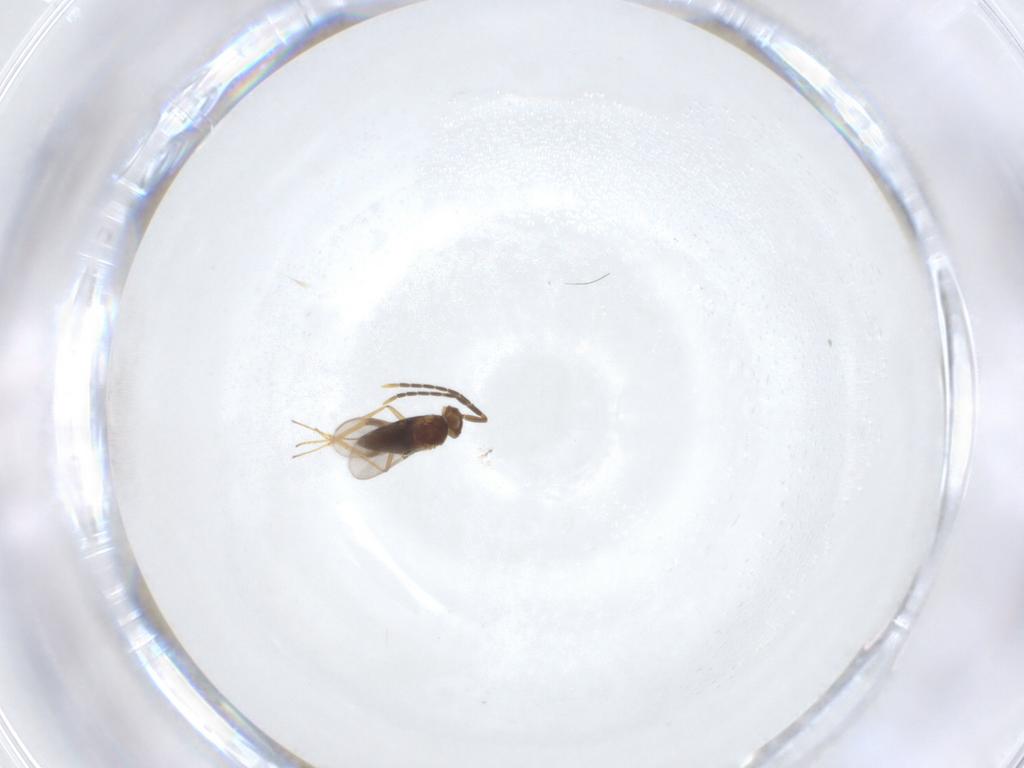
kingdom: Animalia
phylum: Arthropoda
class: Insecta
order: Hymenoptera
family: Encyrtidae
